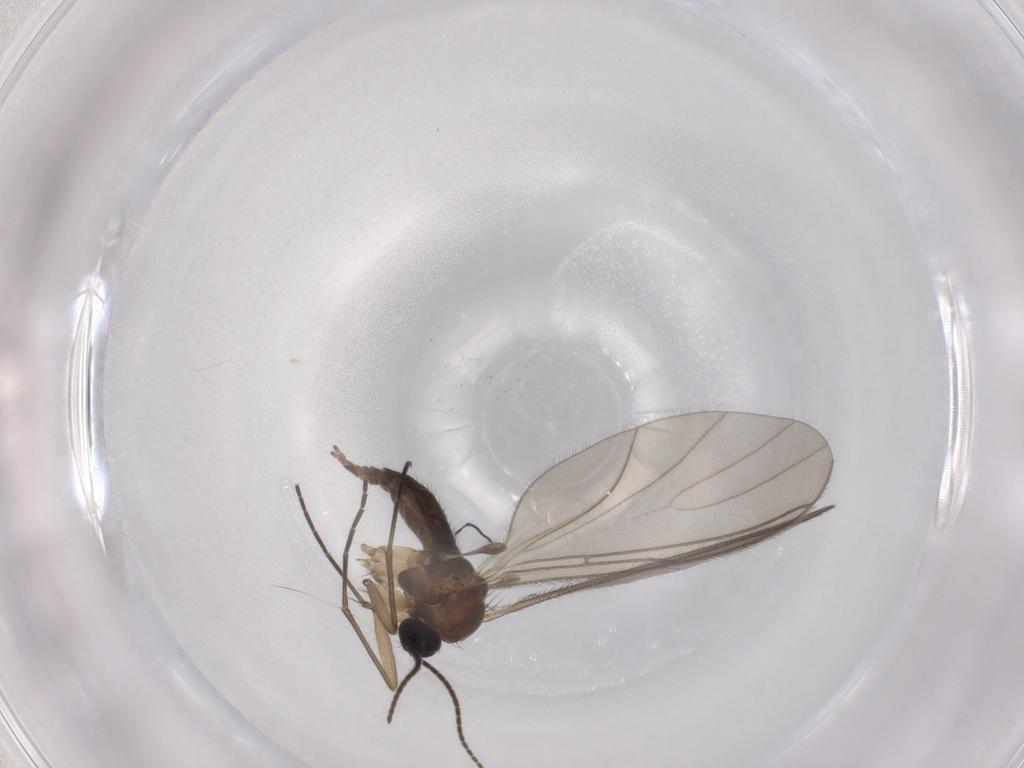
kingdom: Animalia
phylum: Arthropoda
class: Insecta
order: Diptera
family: Sciaridae
